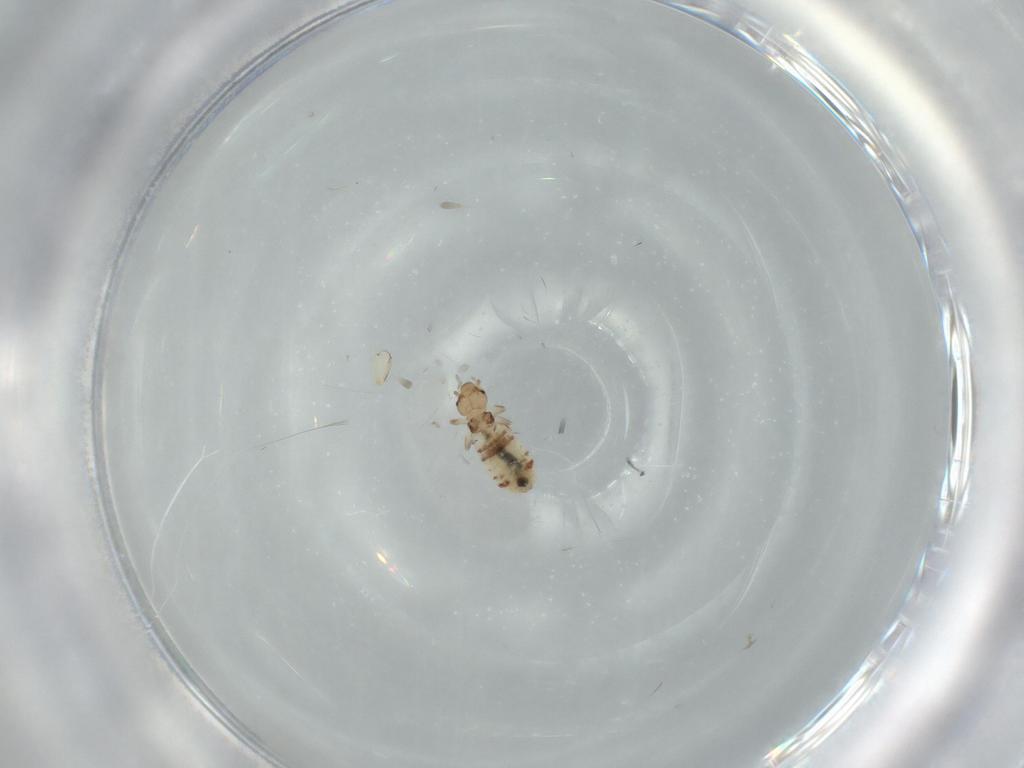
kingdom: Animalia
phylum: Arthropoda
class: Insecta
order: Psocodea
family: Liposcelididae
